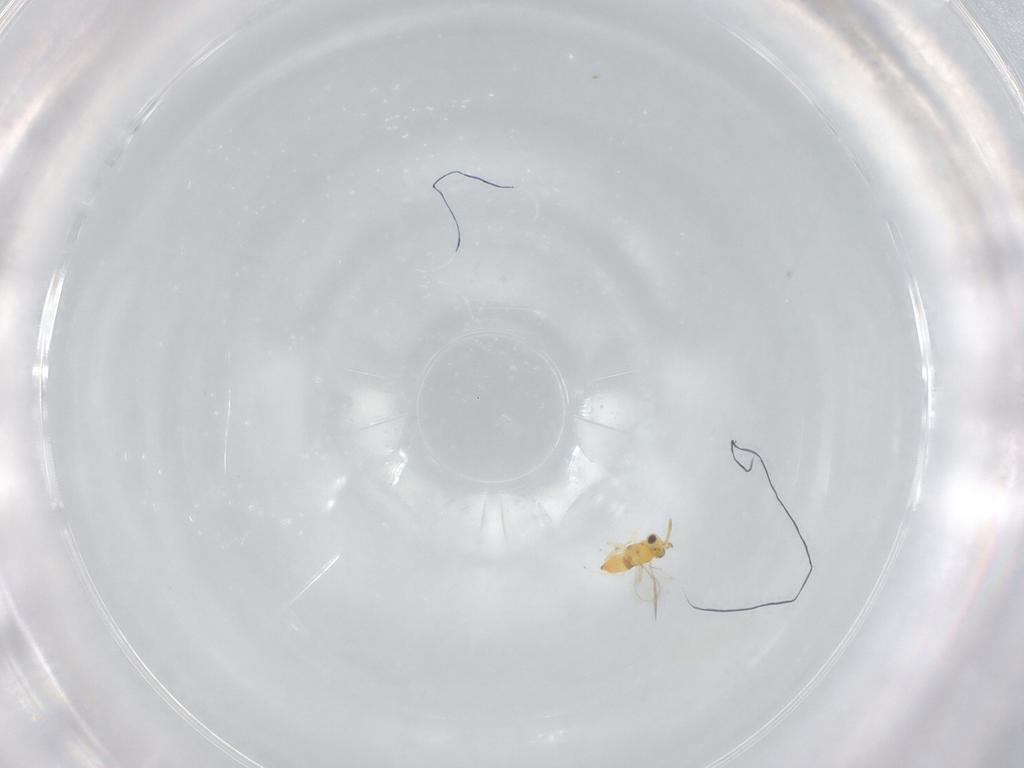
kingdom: Animalia
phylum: Arthropoda
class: Insecta
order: Hymenoptera
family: Aphelinidae
